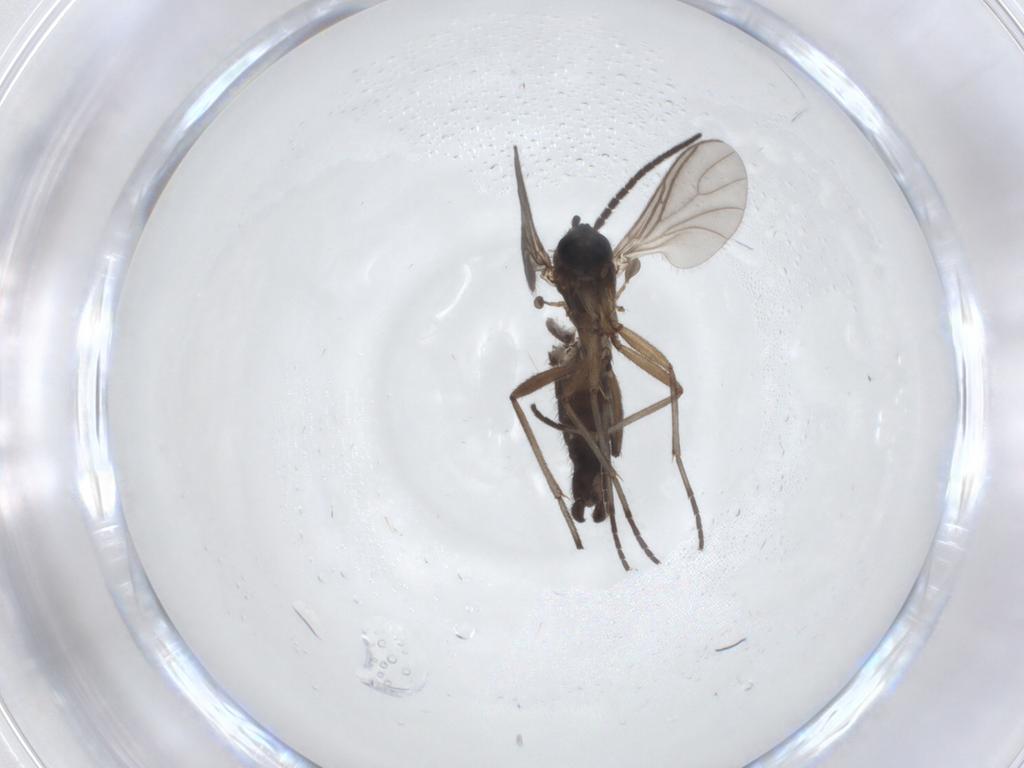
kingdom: Animalia
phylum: Arthropoda
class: Insecta
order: Diptera
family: Sciaridae
